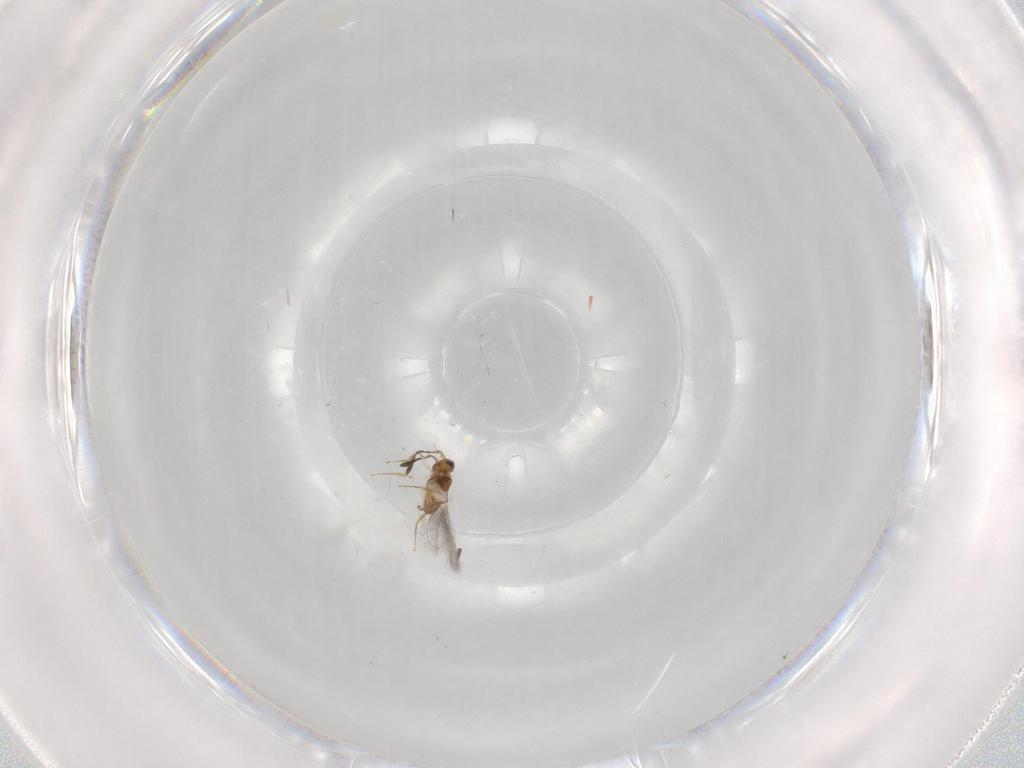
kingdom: Animalia
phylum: Arthropoda
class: Insecta
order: Hymenoptera
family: Mymaridae
